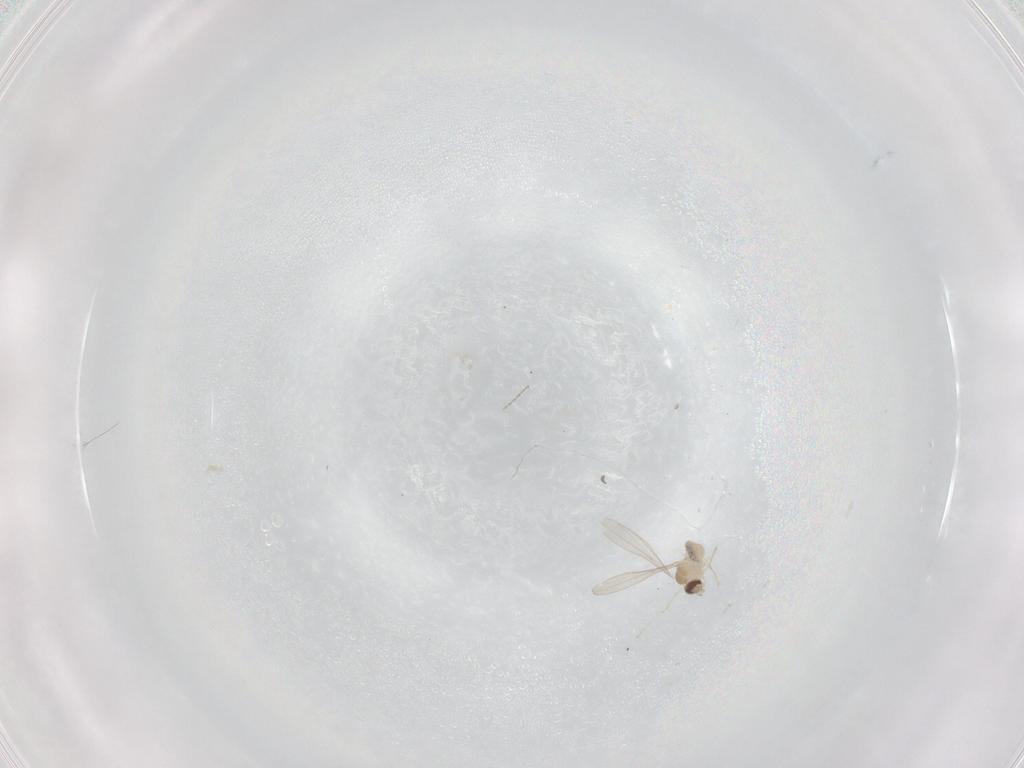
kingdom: Animalia
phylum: Arthropoda
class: Insecta
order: Diptera
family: Cecidomyiidae
